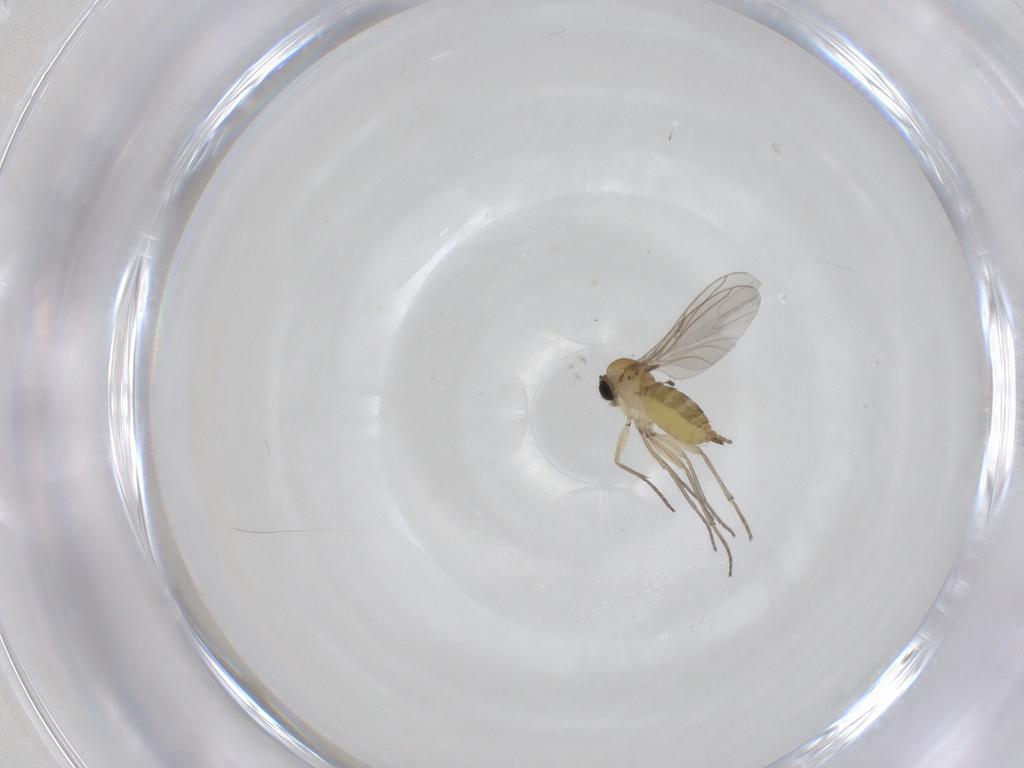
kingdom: Animalia
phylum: Arthropoda
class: Insecta
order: Diptera
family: Sciaridae
